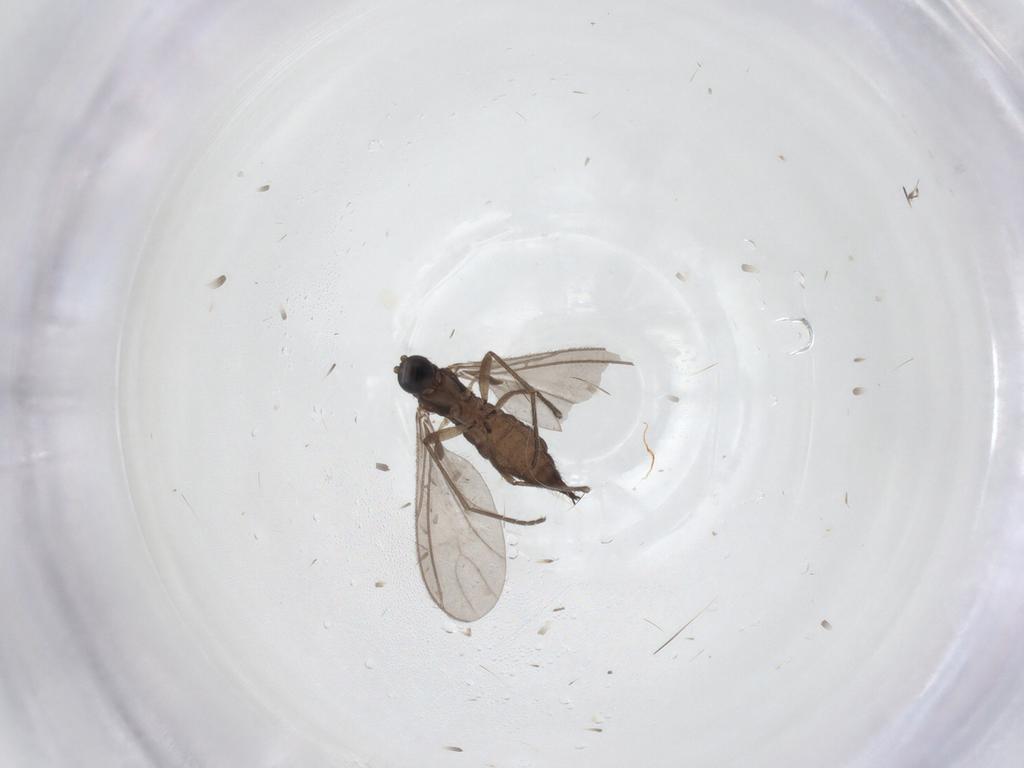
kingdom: Animalia
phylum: Arthropoda
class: Insecta
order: Diptera
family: Chironomidae
